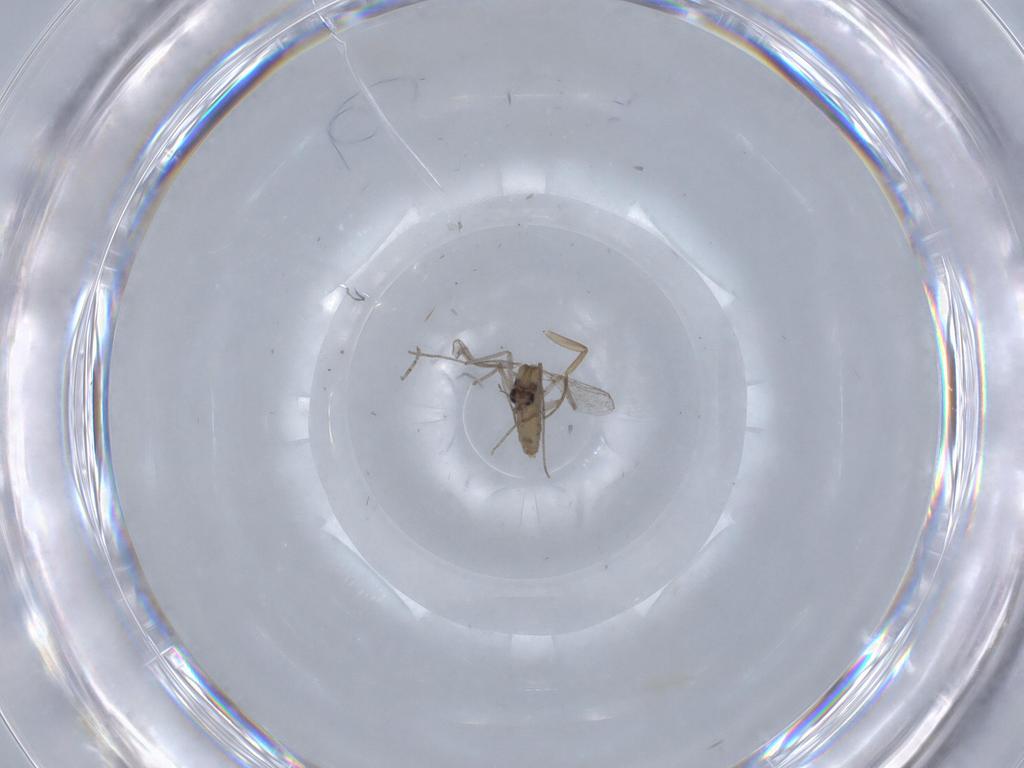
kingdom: Animalia
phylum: Arthropoda
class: Insecta
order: Diptera
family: Chironomidae
